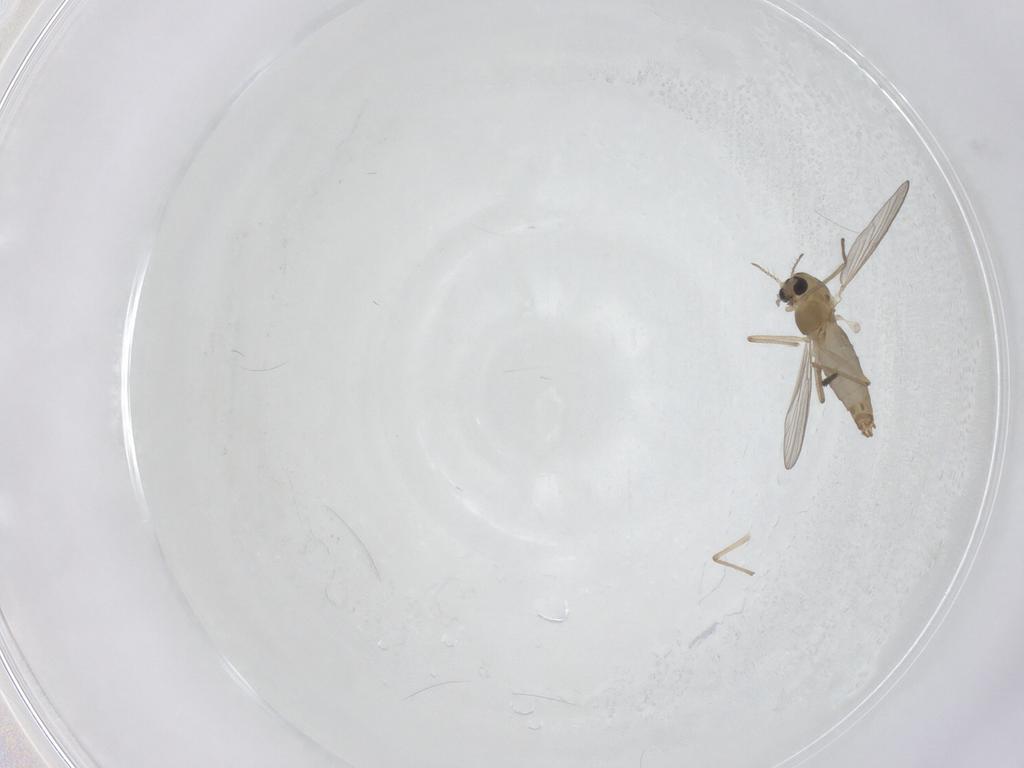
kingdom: Animalia
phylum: Arthropoda
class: Insecta
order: Diptera
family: Chironomidae
